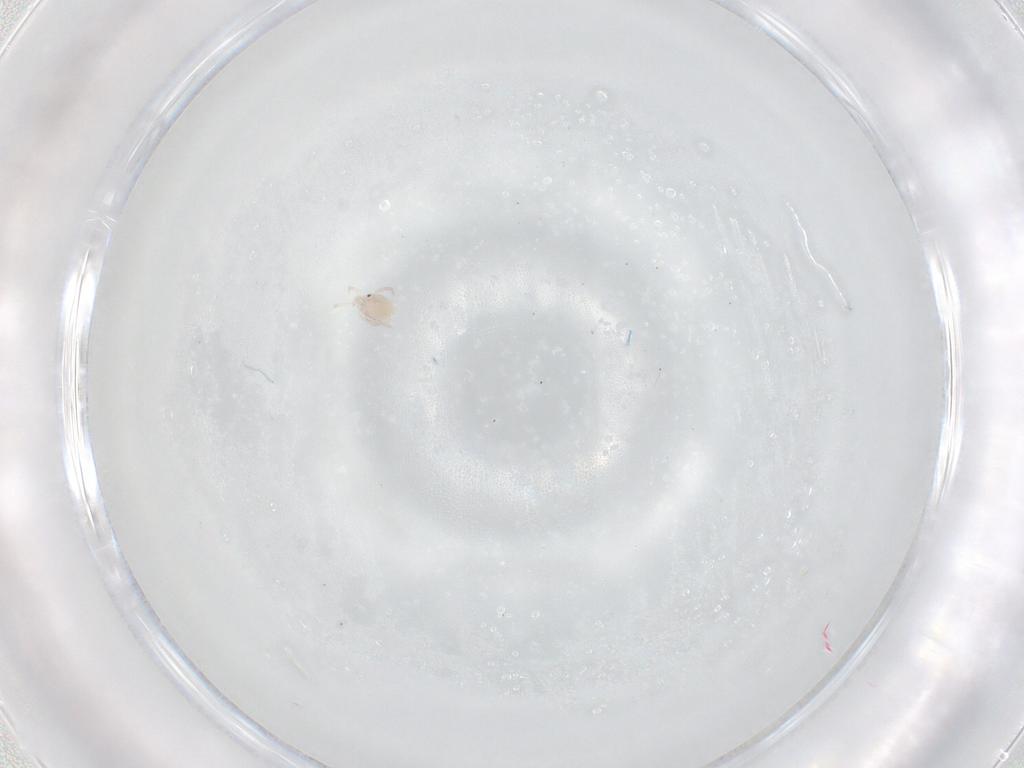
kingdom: Animalia
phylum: Arthropoda
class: Arachnida
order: Trombidiformes
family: Lebertiidae
